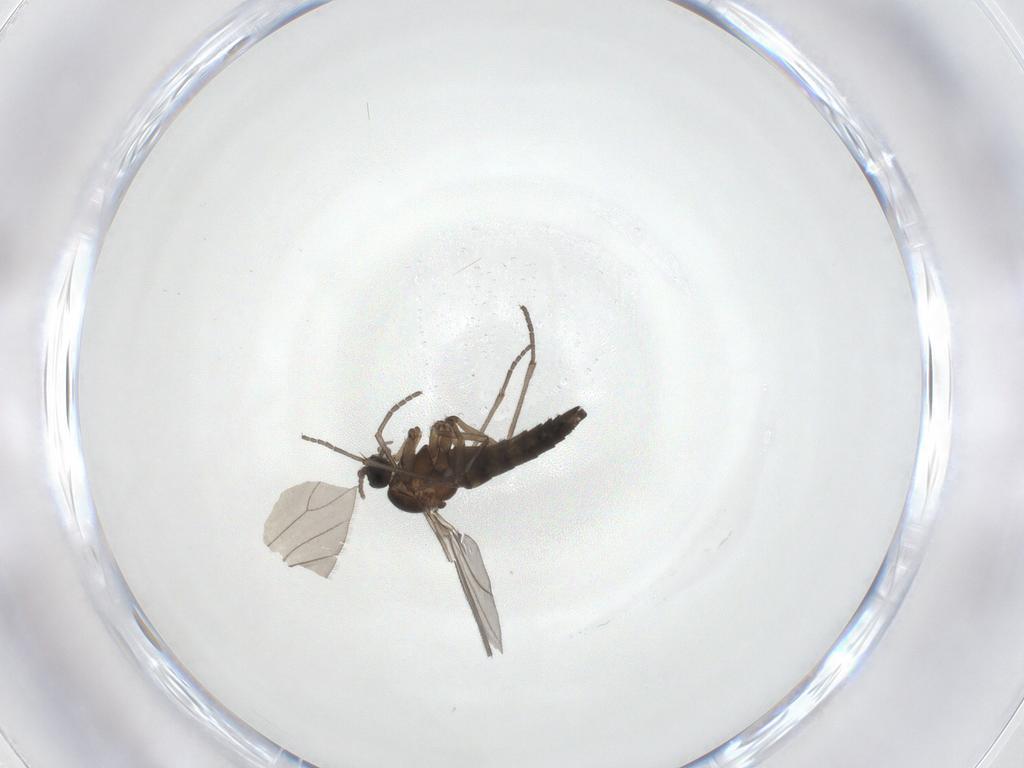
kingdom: Animalia
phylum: Arthropoda
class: Insecta
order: Diptera
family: Sciaridae
